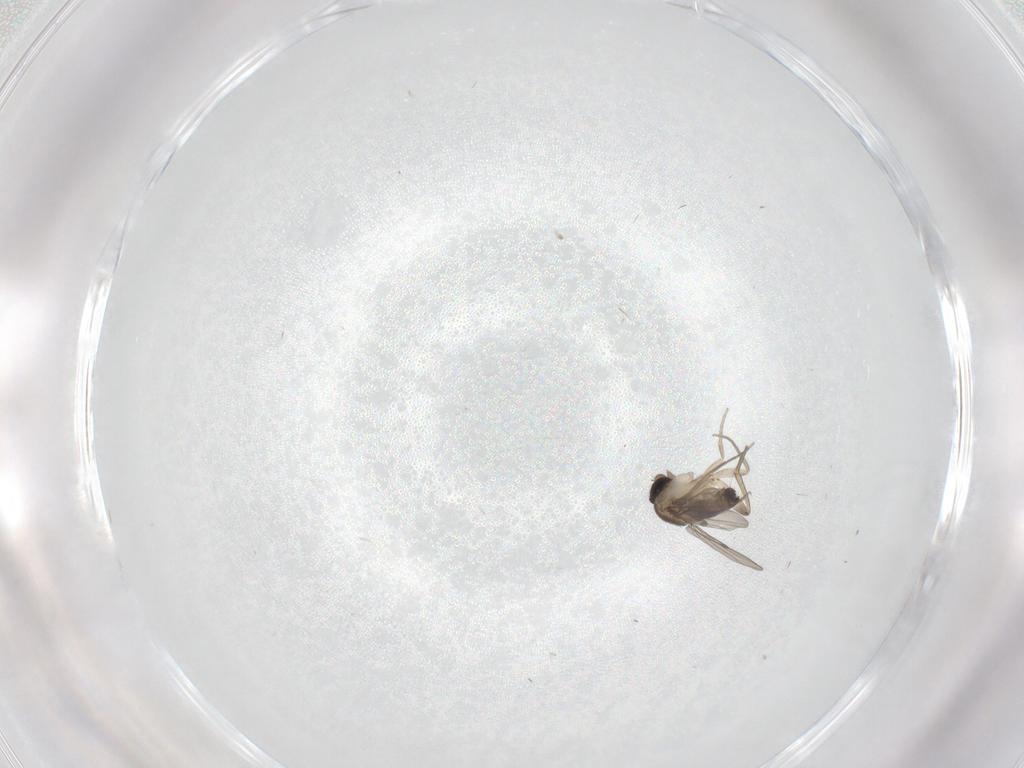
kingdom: Animalia
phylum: Arthropoda
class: Insecta
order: Diptera
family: Phoridae
